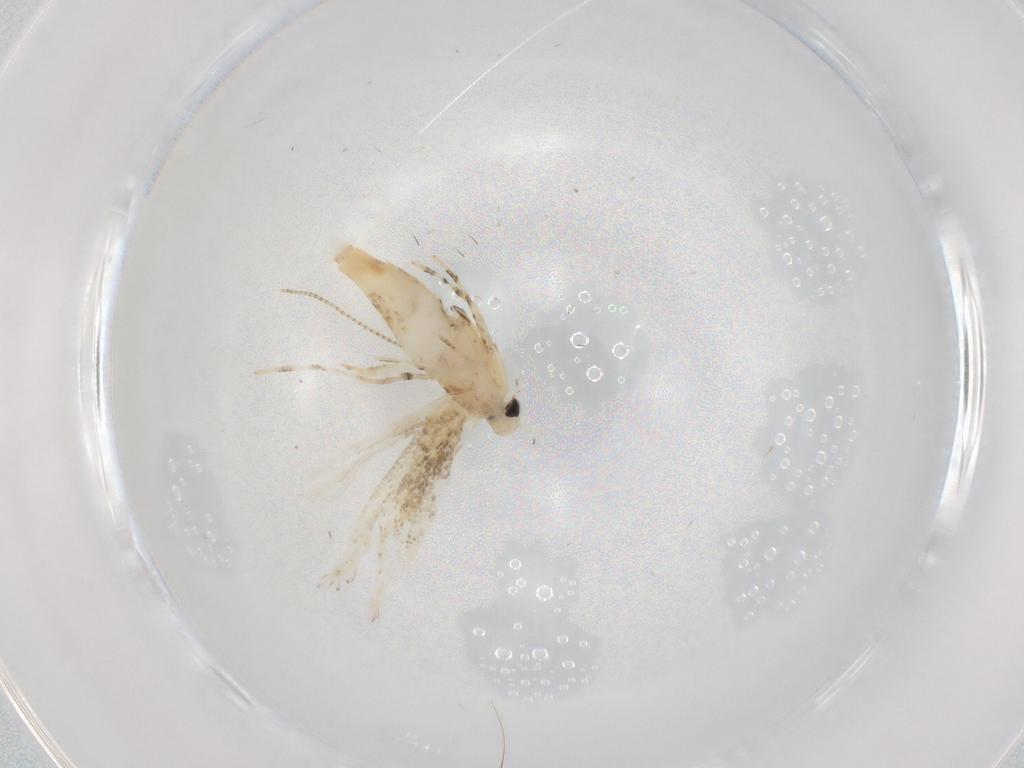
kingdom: Animalia
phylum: Arthropoda
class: Insecta
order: Lepidoptera
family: Gracillariidae
